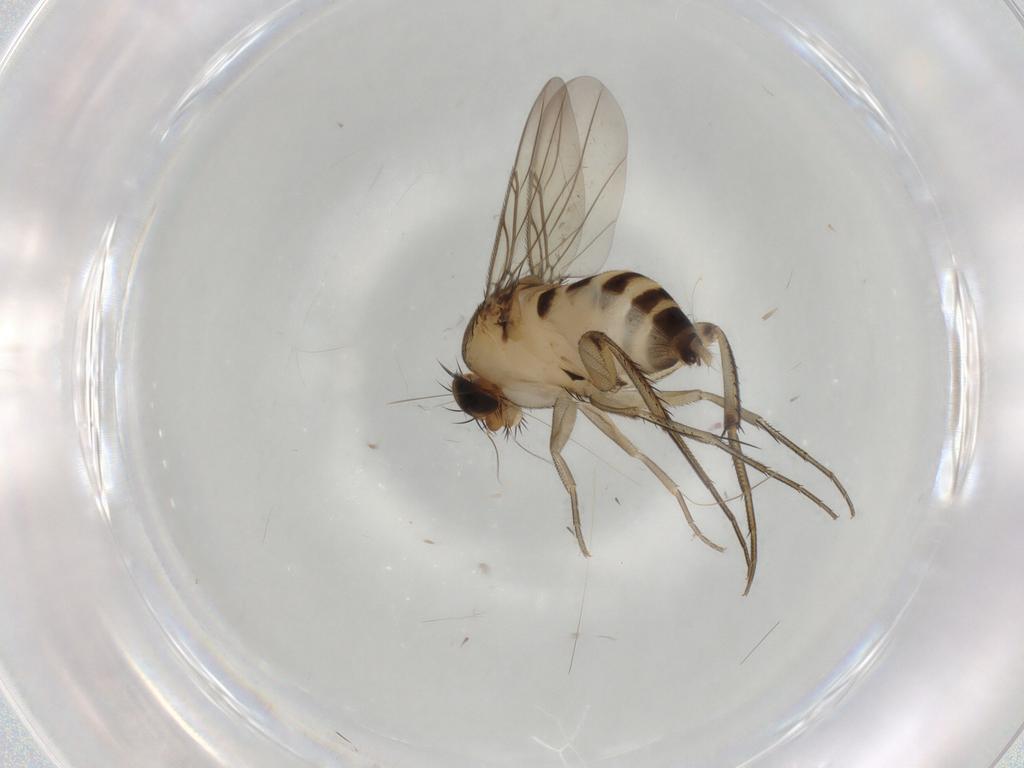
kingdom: Animalia
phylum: Arthropoda
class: Insecta
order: Diptera
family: Phoridae
